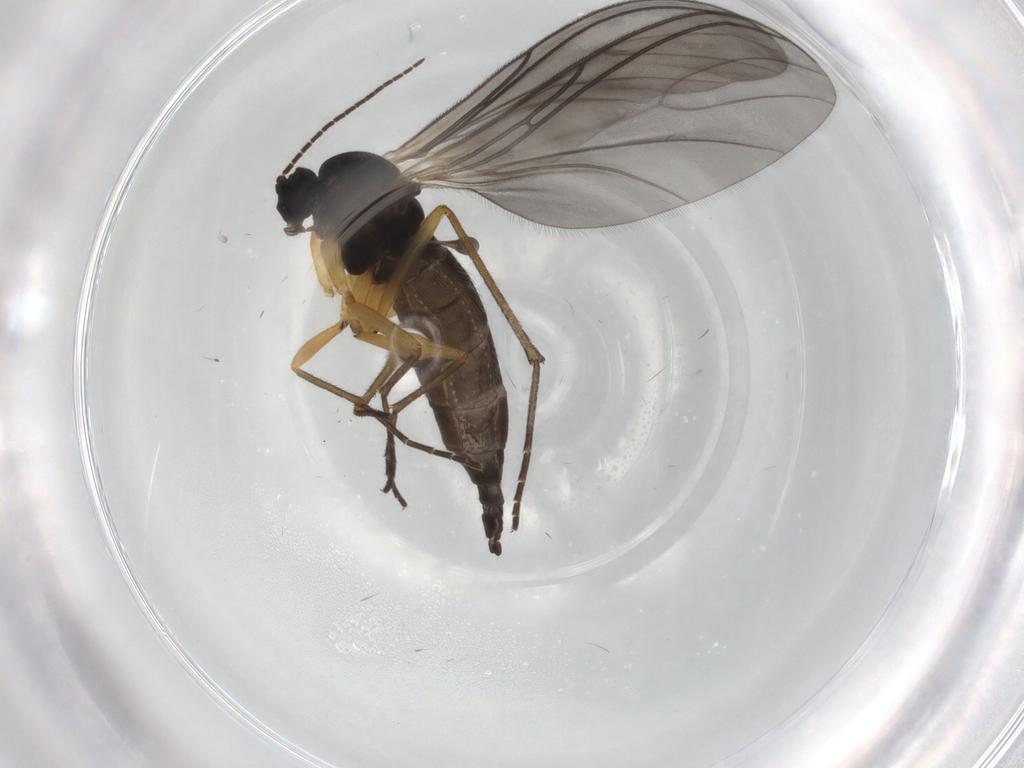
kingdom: Animalia
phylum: Arthropoda
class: Insecta
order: Diptera
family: Sciaridae
